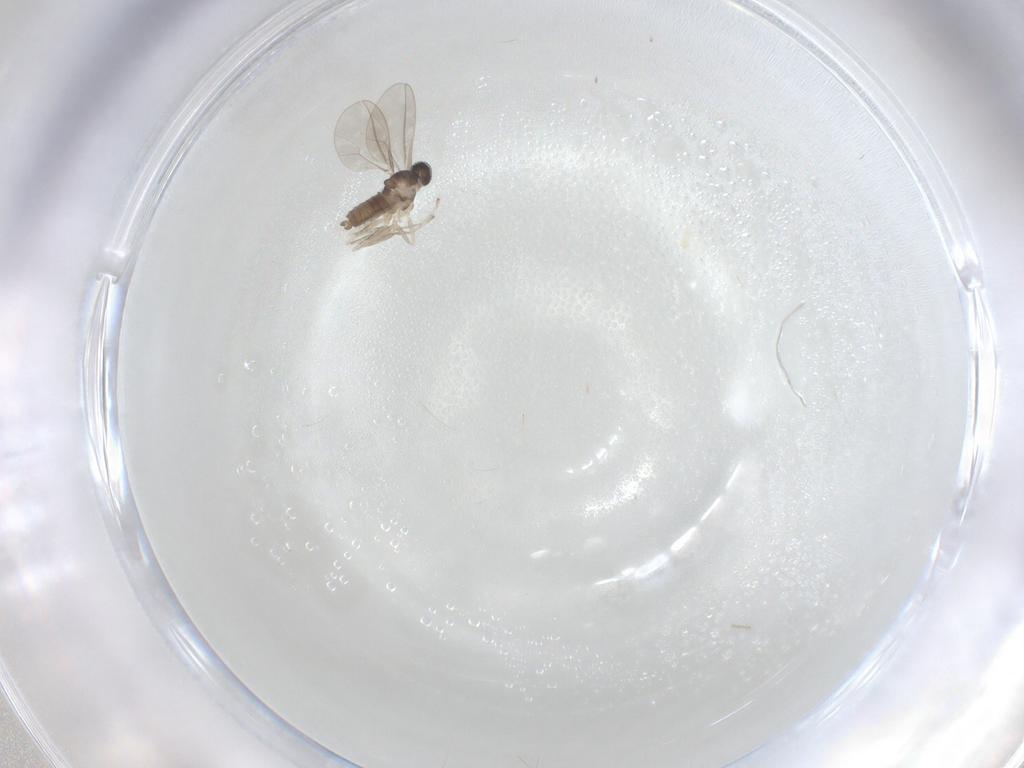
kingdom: Animalia
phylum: Arthropoda
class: Insecta
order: Diptera
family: Cecidomyiidae
